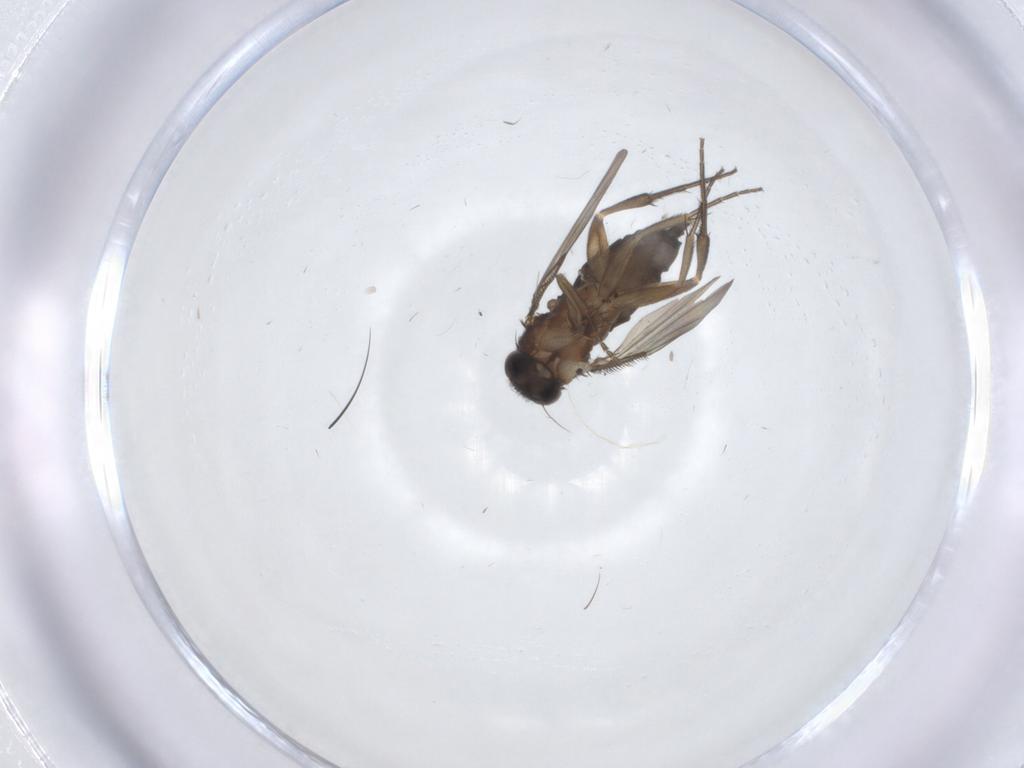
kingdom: Animalia
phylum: Arthropoda
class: Insecta
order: Diptera
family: Phoridae
